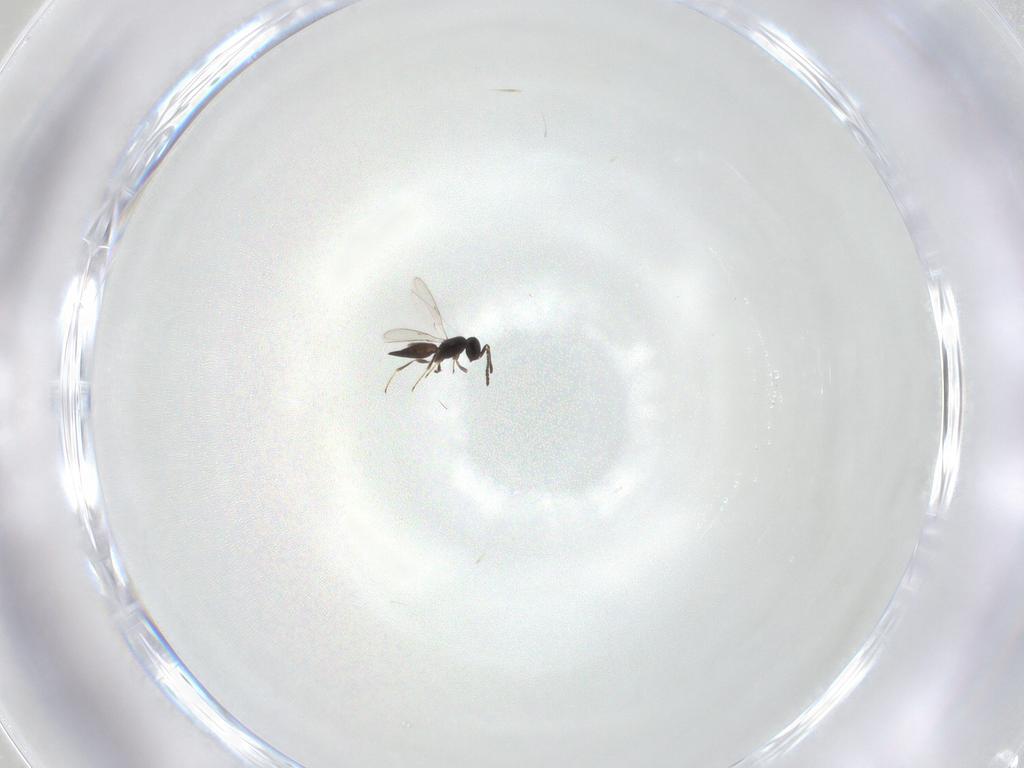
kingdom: Animalia
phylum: Arthropoda
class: Insecta
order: Hymenoptera
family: Scelionidae
